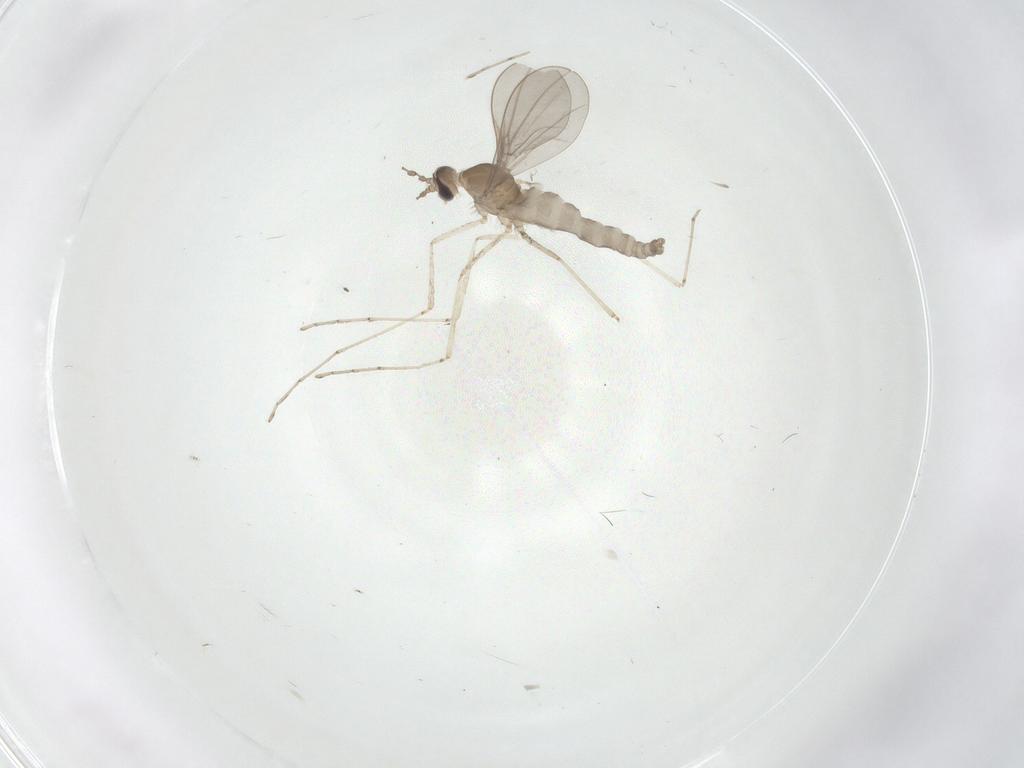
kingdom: Animalia
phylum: Arthropoda
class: Insecta
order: Diptera
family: Cecidomyiidae
